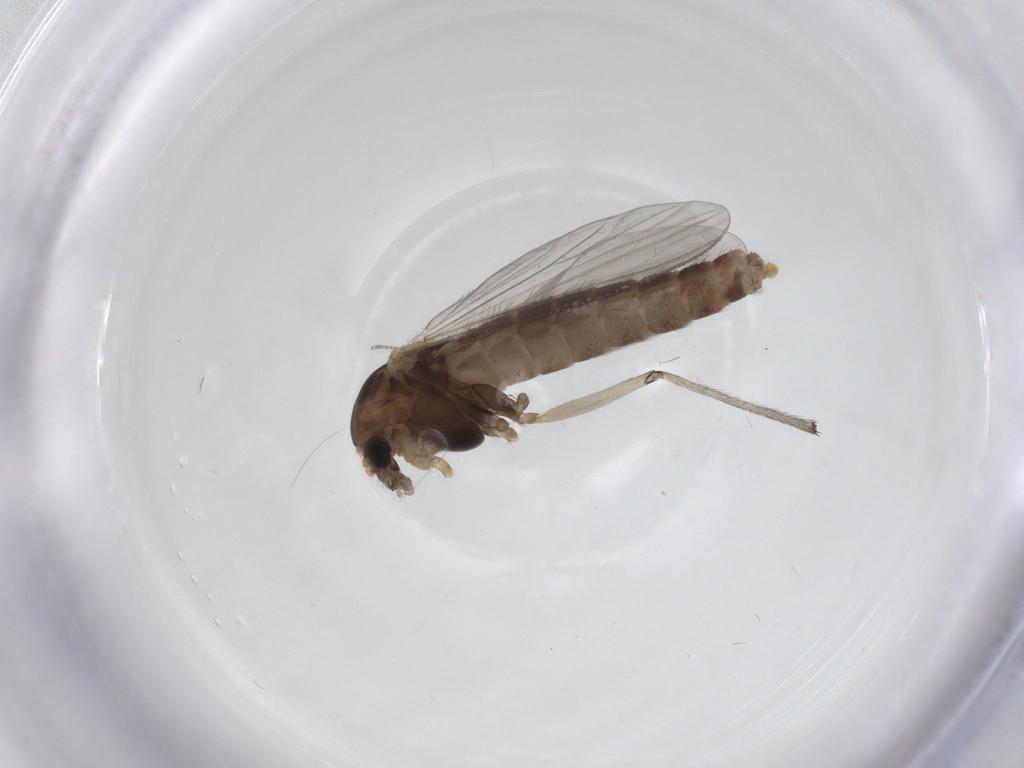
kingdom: Animalia
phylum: Arthropoda
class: Insecta
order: Diptera
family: Chironomidae
